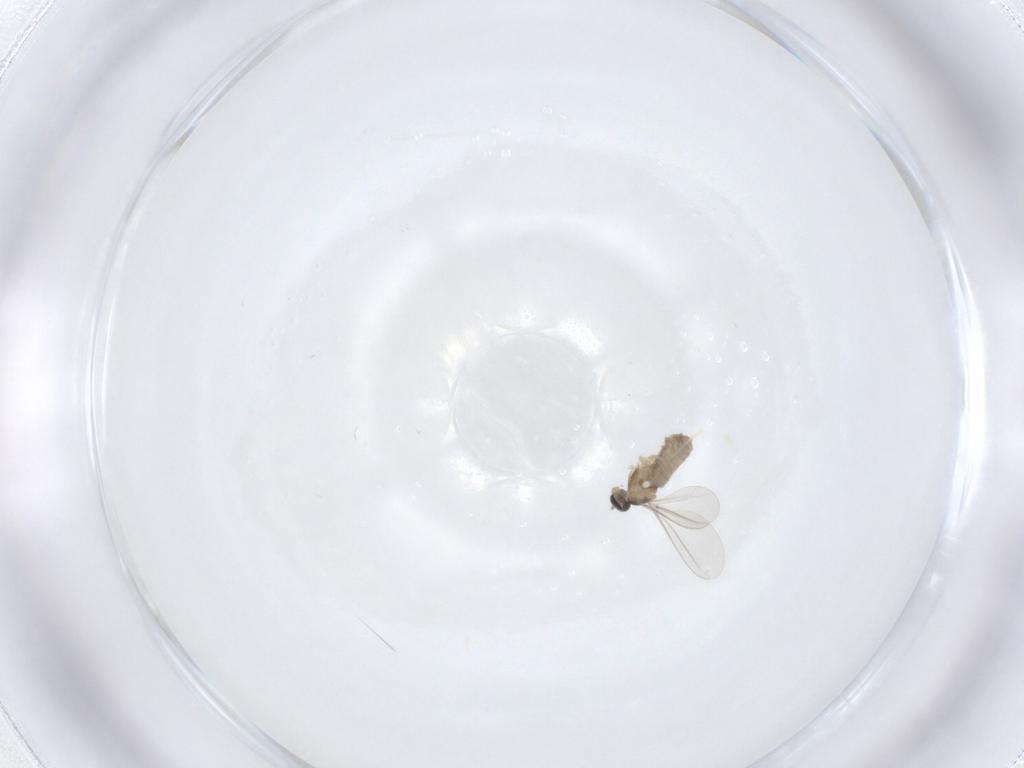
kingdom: Animalia
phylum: Arthropoda
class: Insecta
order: Diptera
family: Cecidomyiidae
